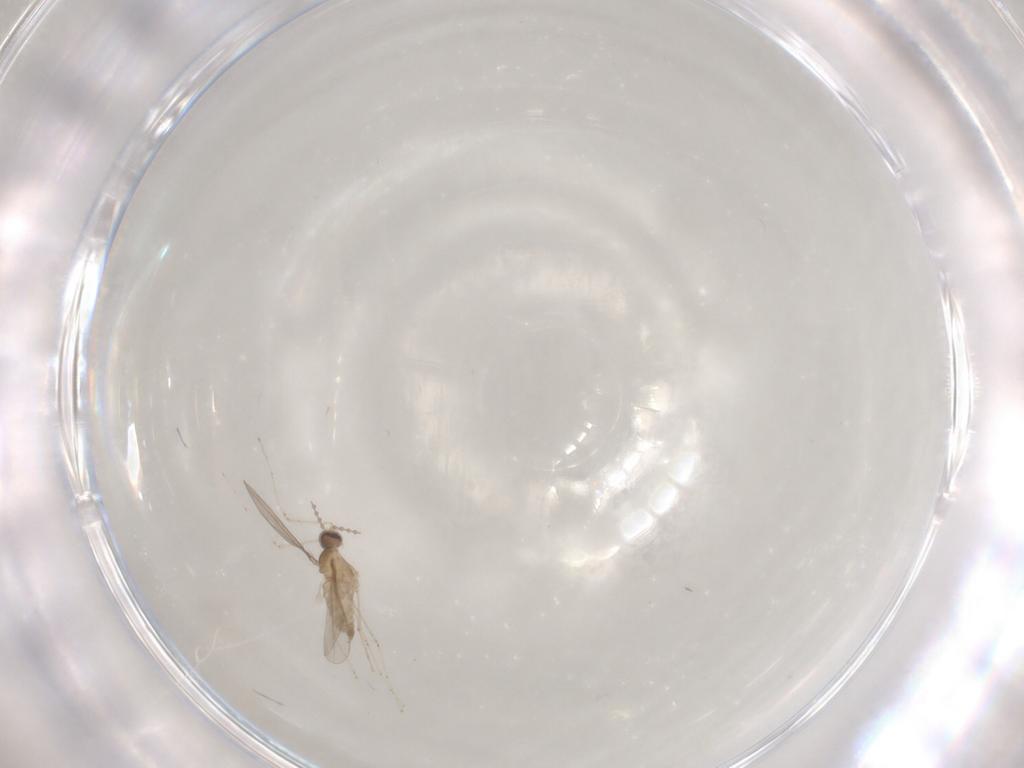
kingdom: Animalia
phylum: Arthropoda
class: Insecta
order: Diptera
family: Cecidomyiidae
